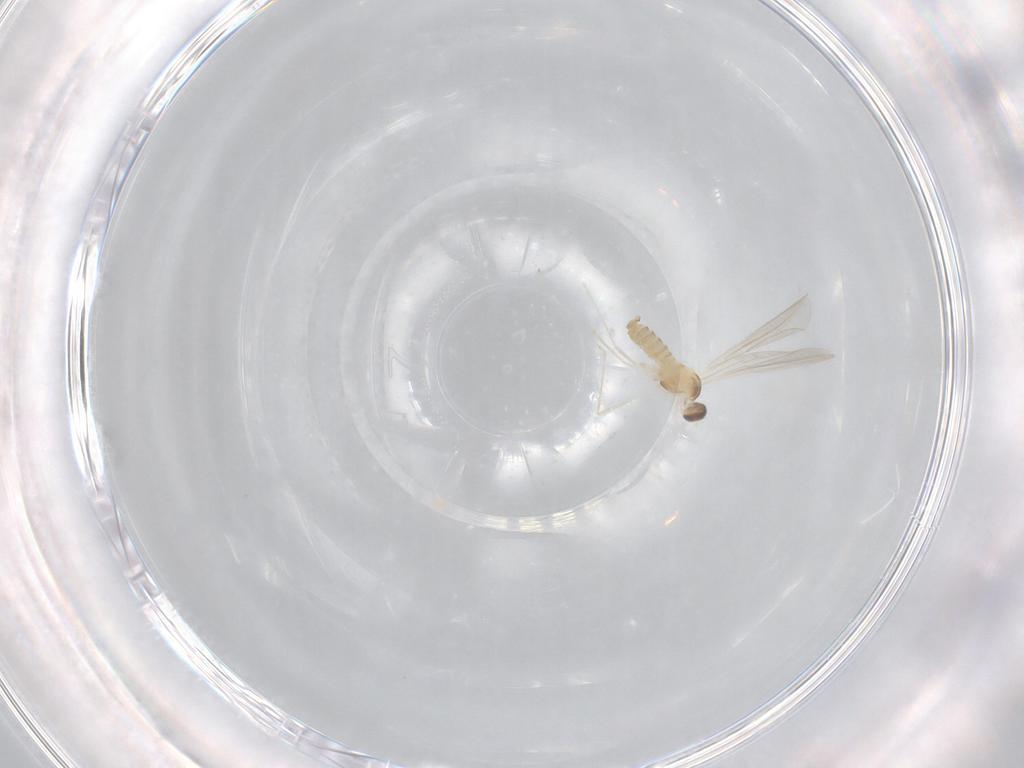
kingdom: Animalia
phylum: Arthropoda
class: Insecta
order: Diptera
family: Cecidomyiidae
